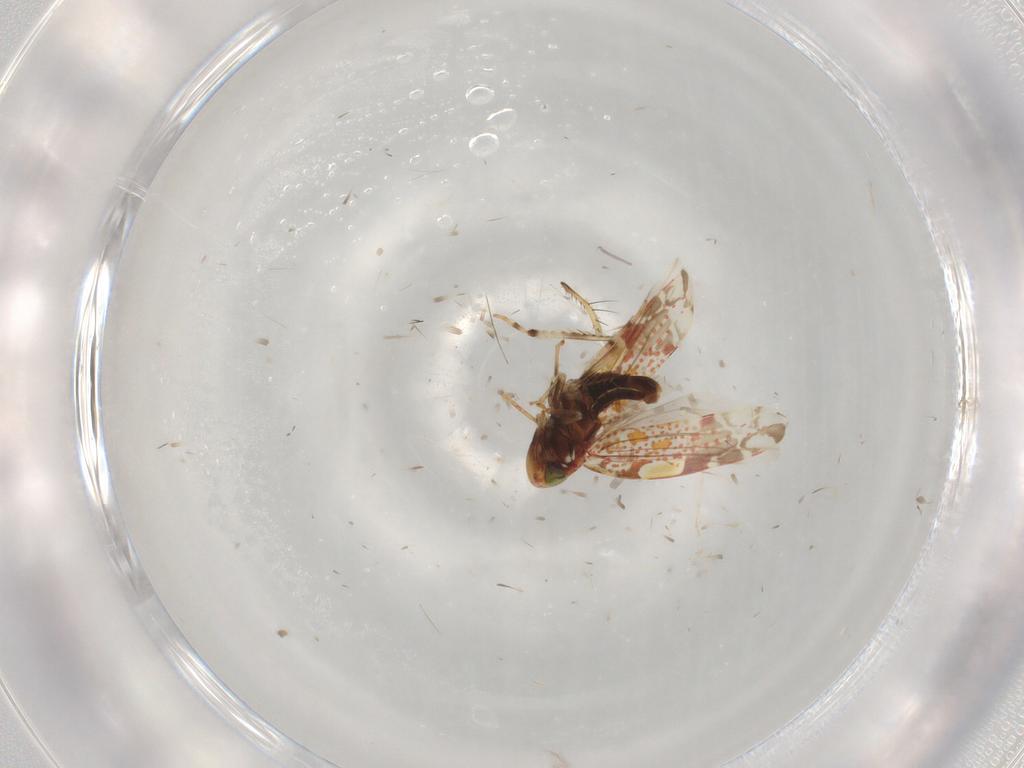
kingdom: Animalia
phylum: Arthropoda
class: Insecta
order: Hemiptera
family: Cicadellidae
